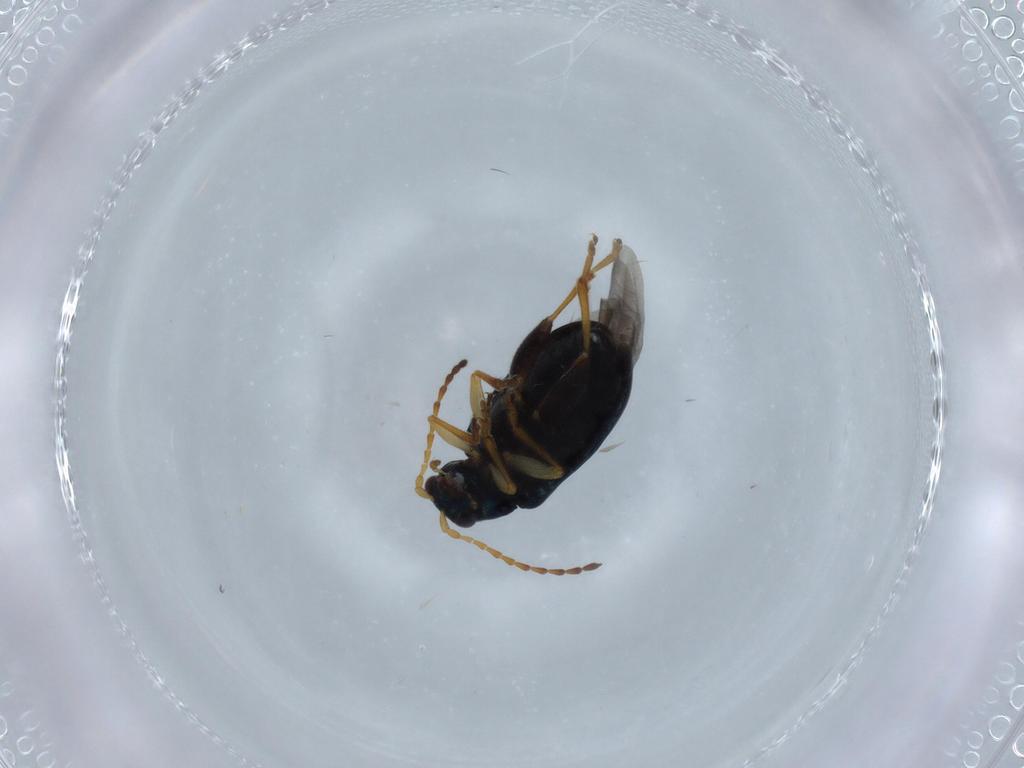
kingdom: Animalia
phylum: Arthropoda
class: Insecta
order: Coleoptera
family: Chrysomelidae
